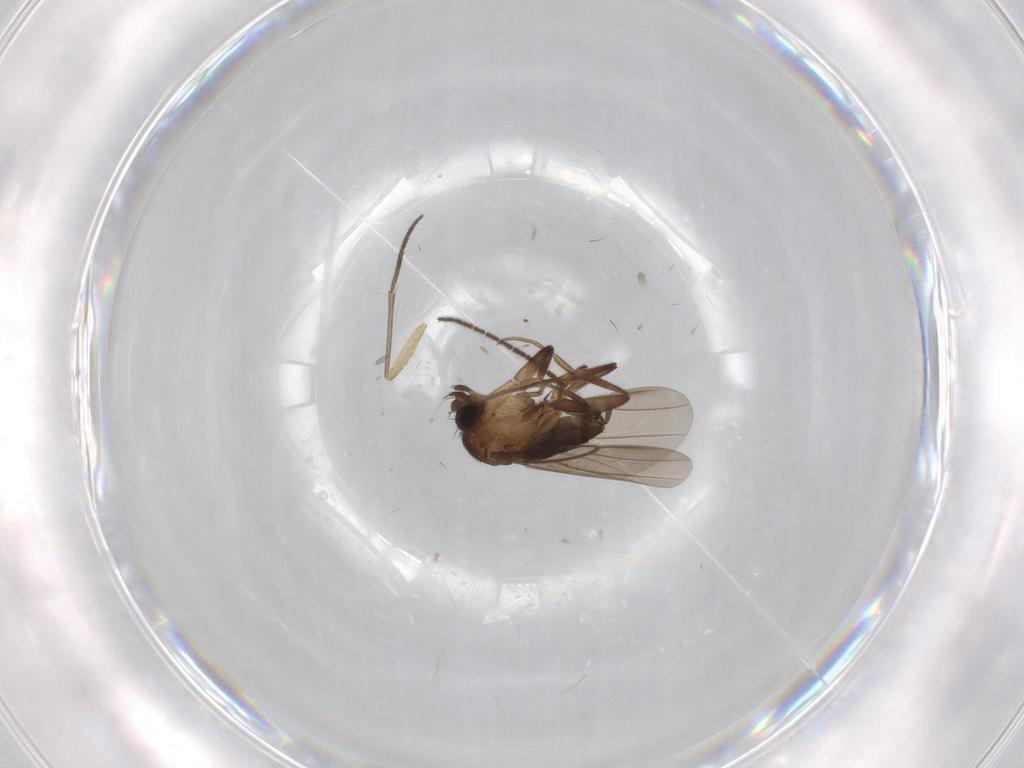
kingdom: Animalia
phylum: Arthropoda
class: Insecta
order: Diptera
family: Phoridae
